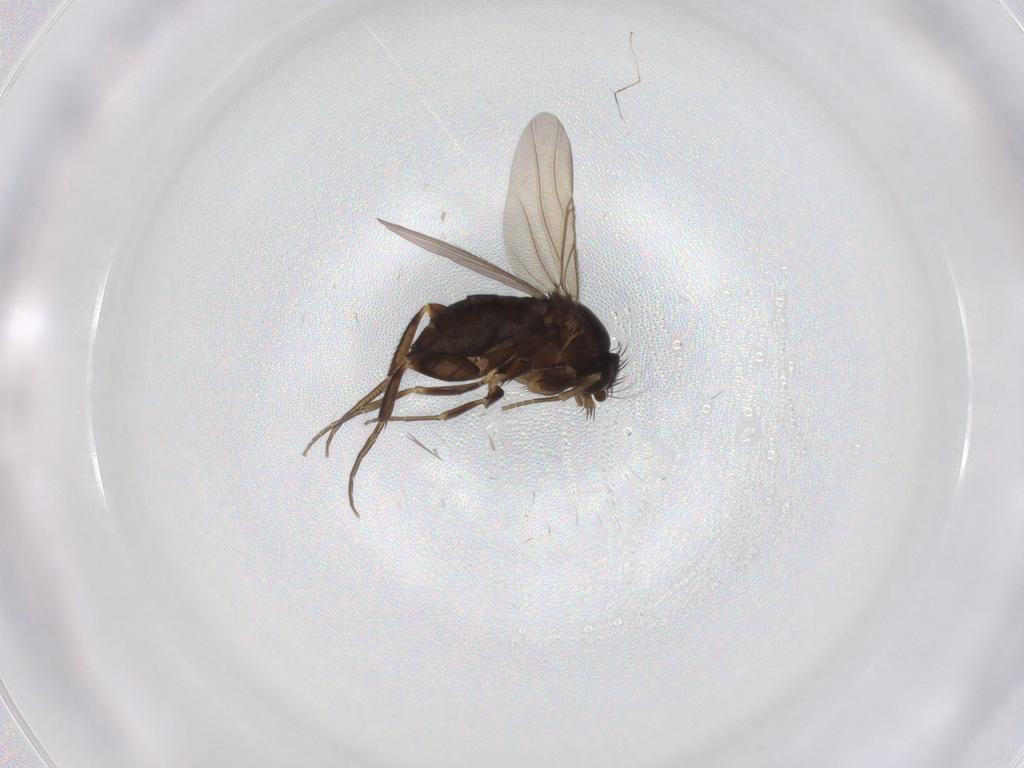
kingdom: Animalia
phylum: Arthropoda
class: Insecta
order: Diptera
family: Phoridae
